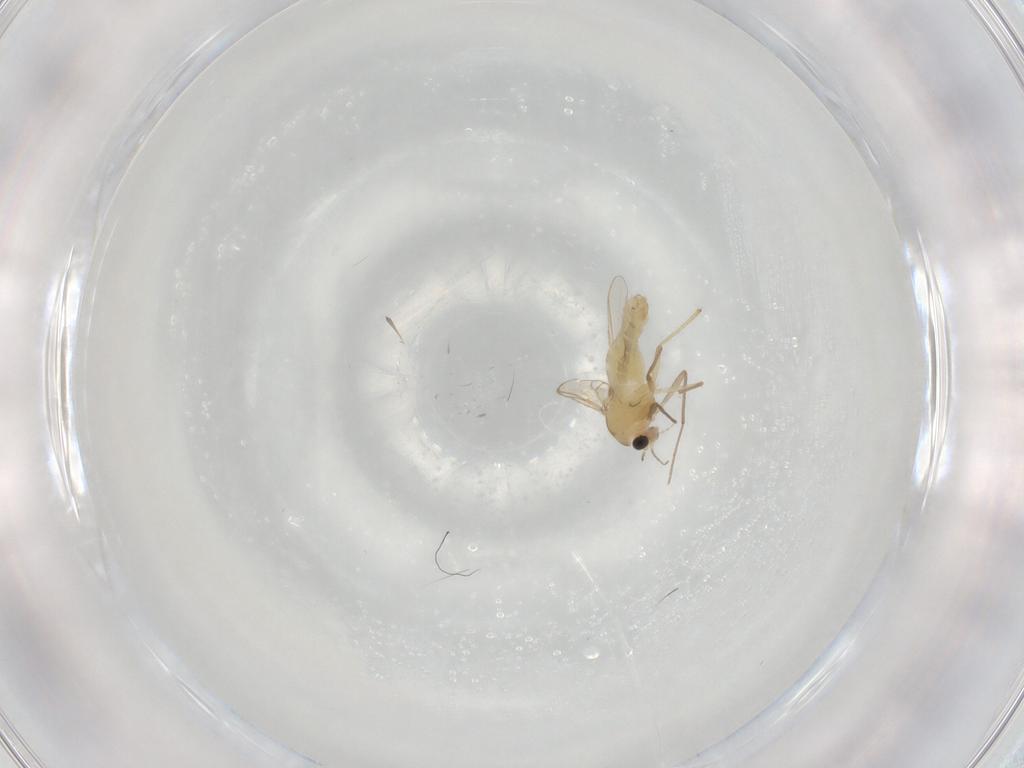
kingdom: Animalia
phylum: Arthropoda
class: Insecta
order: Diptera
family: Chironomidae
